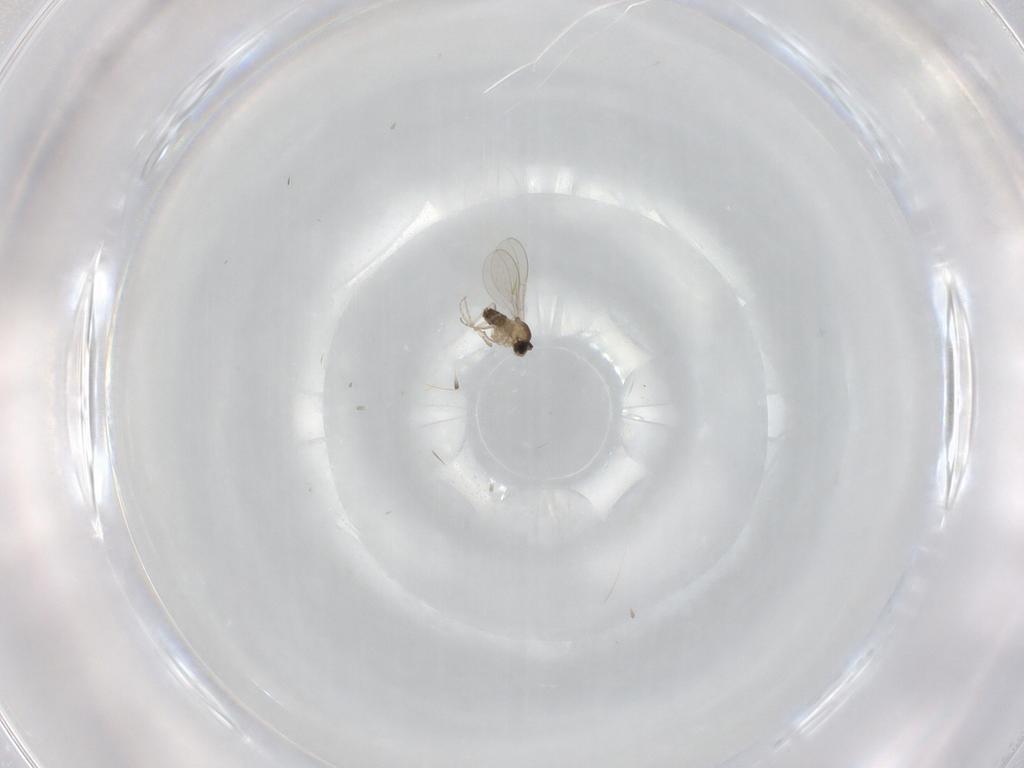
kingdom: Animalia
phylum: Arthropoda
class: Insecta
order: Diptera
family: Cecidomyiidae
